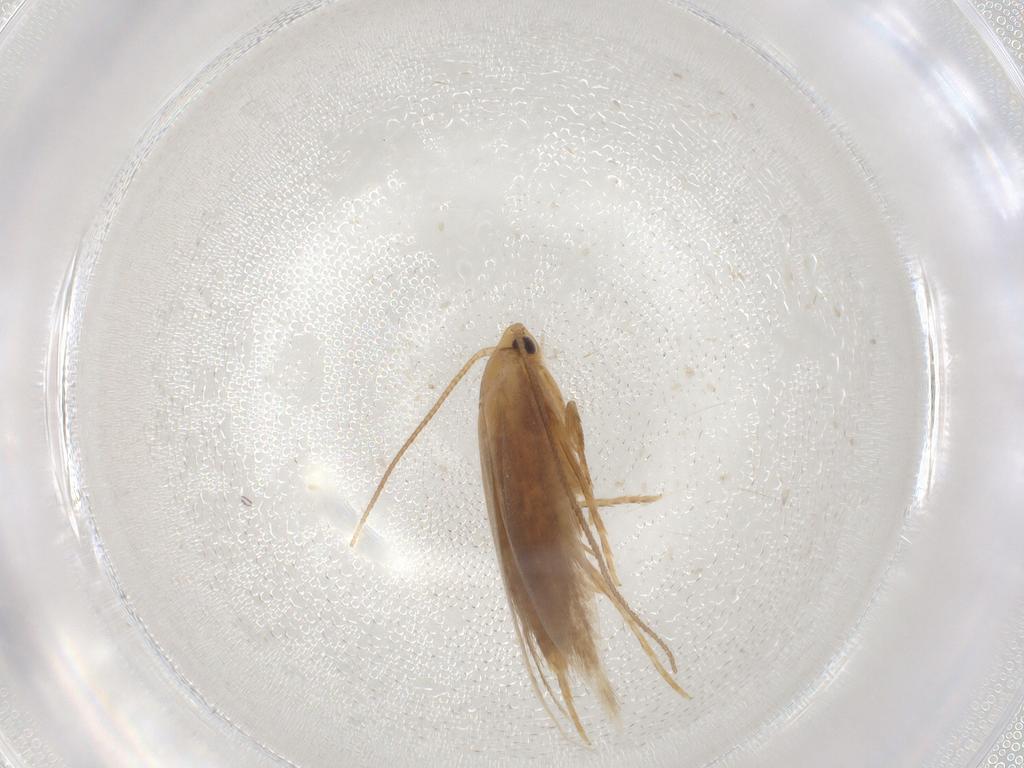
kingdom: Animalia
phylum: Arthropoda
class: Insecta
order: Lepidoptera
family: Tineidae
